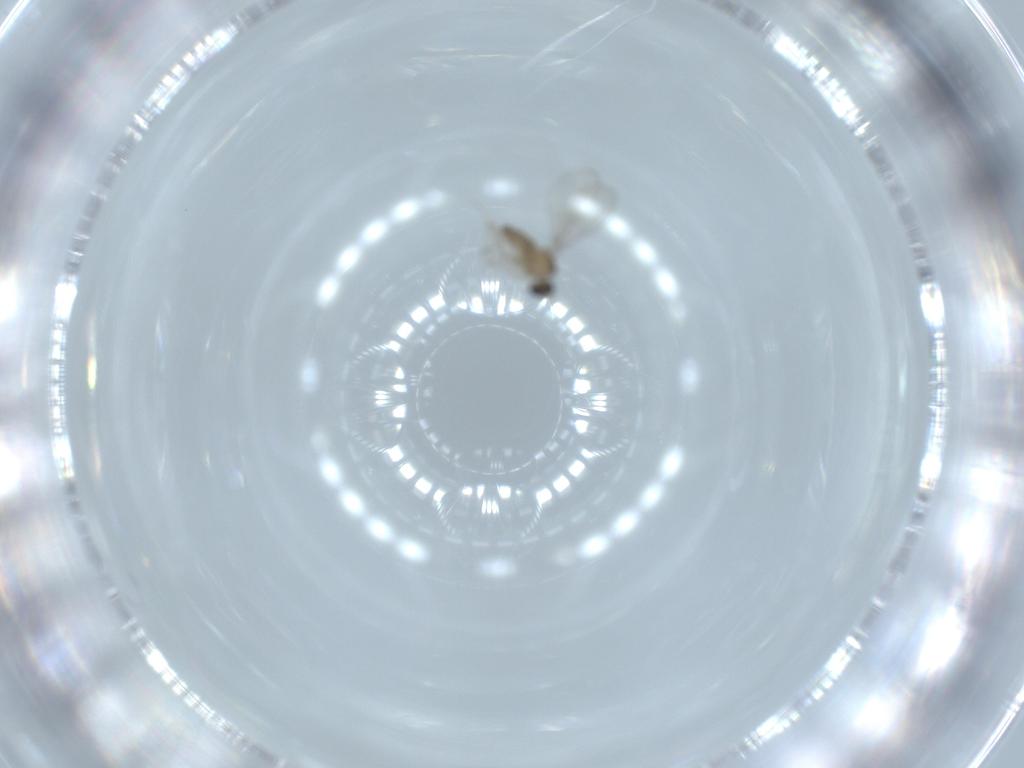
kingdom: Animalia
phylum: Arthropoda
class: Insecta
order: Diptera
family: Cecidomyiidae
